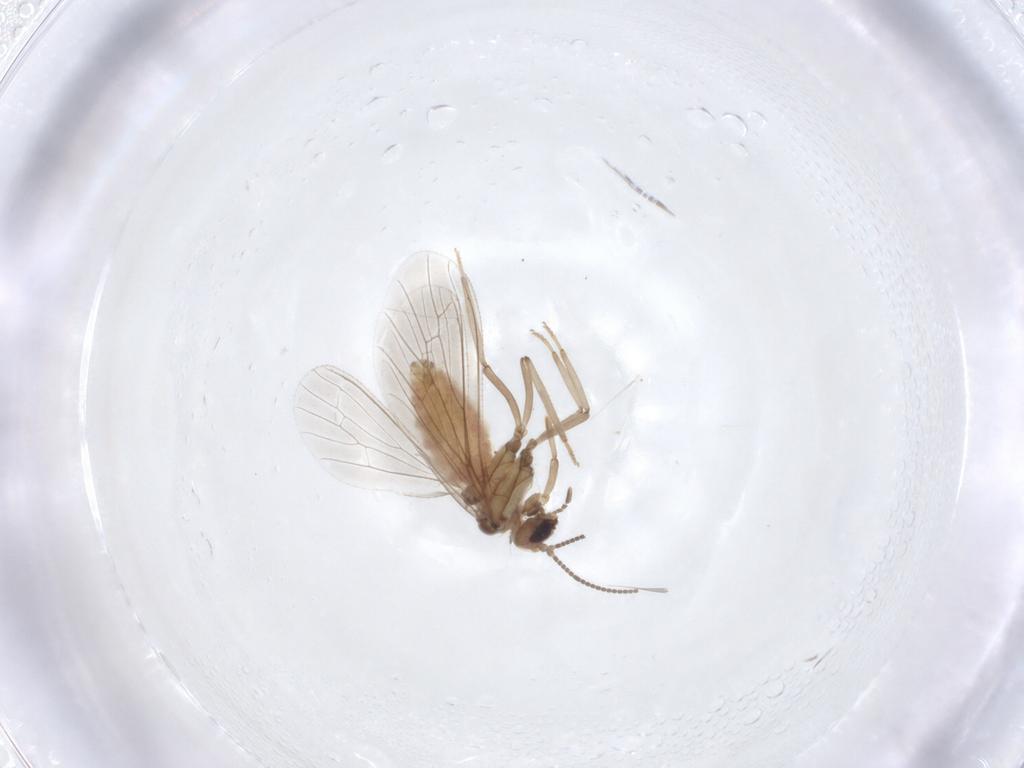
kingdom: Animalia
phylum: Arthropoda
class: Insecta
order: Neuroptera
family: Coniopterygidae
